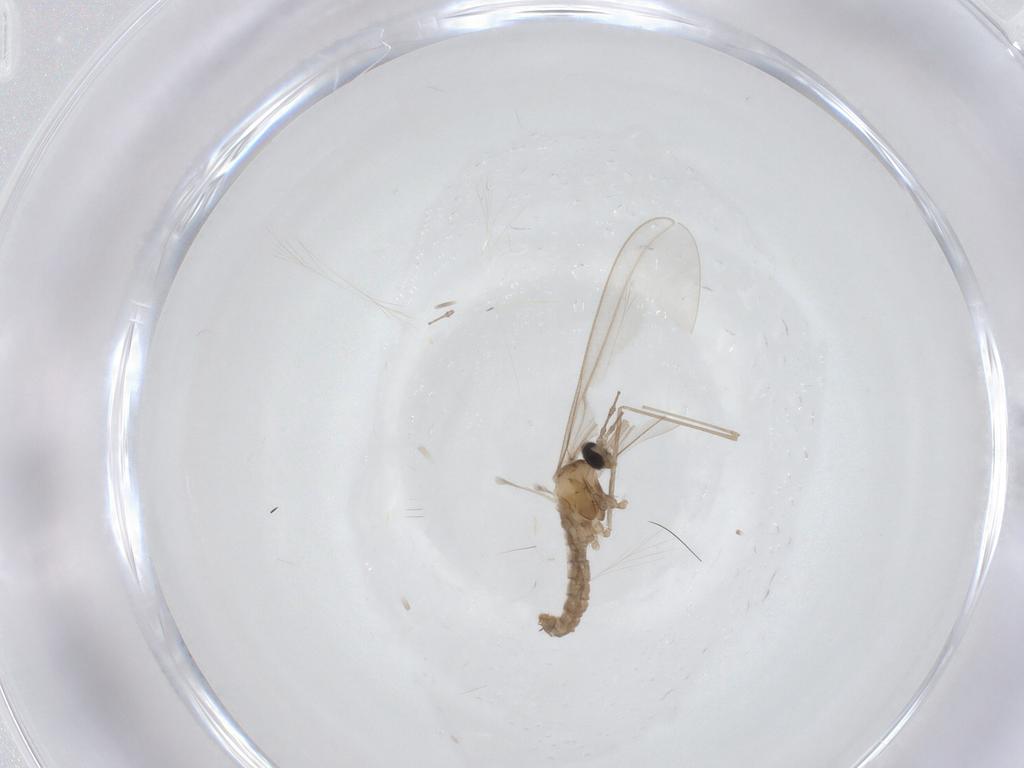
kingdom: Animalia
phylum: Arthropoda
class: Insecta
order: Diptera
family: Cecidomyiidae
